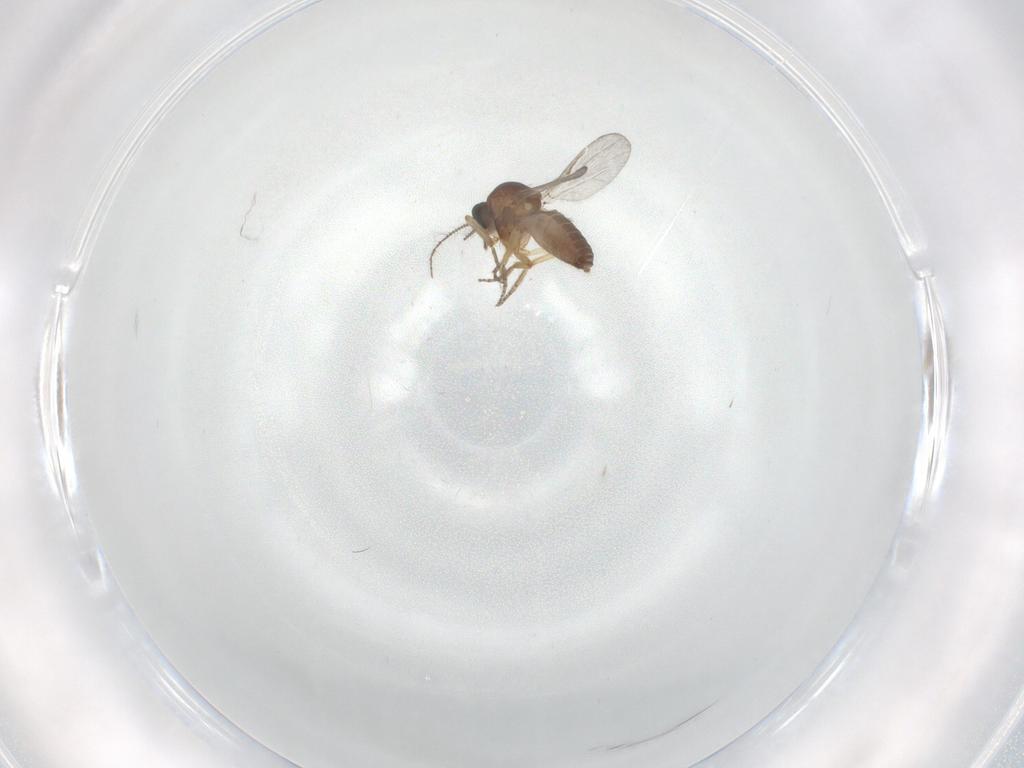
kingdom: Animalia
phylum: Arthropoda
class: Insecta
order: Diptera
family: Ceratopogonidae
